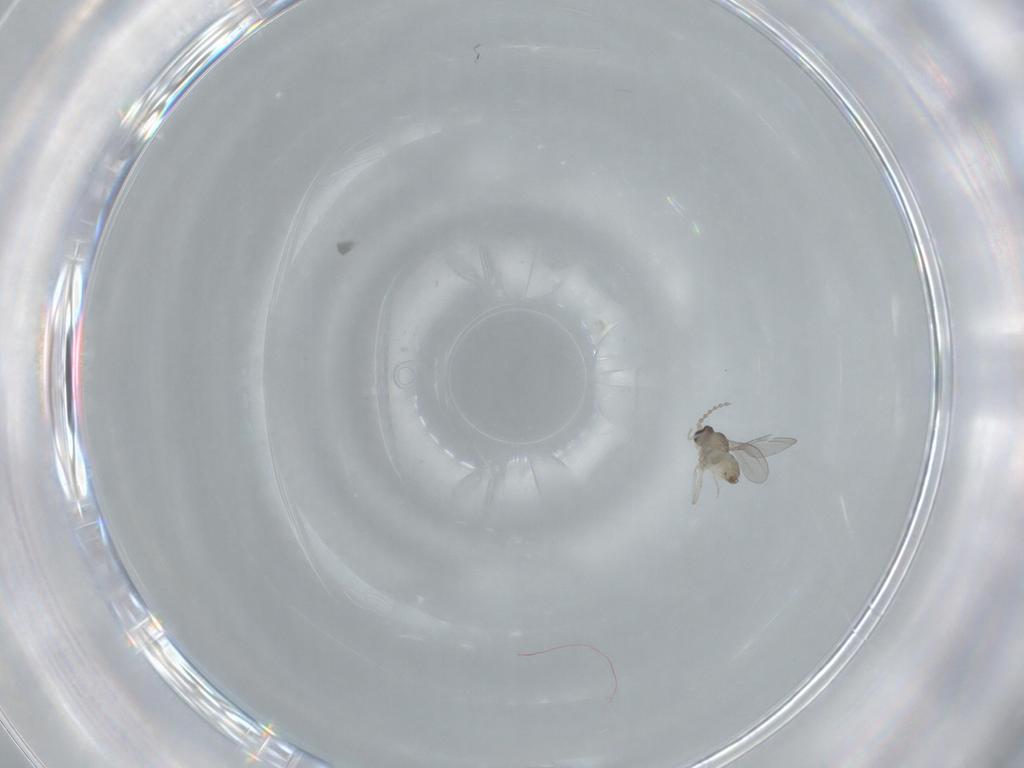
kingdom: Animalia
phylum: Arthropoda
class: Insecta
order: Diptera
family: Cecidomyiidae
